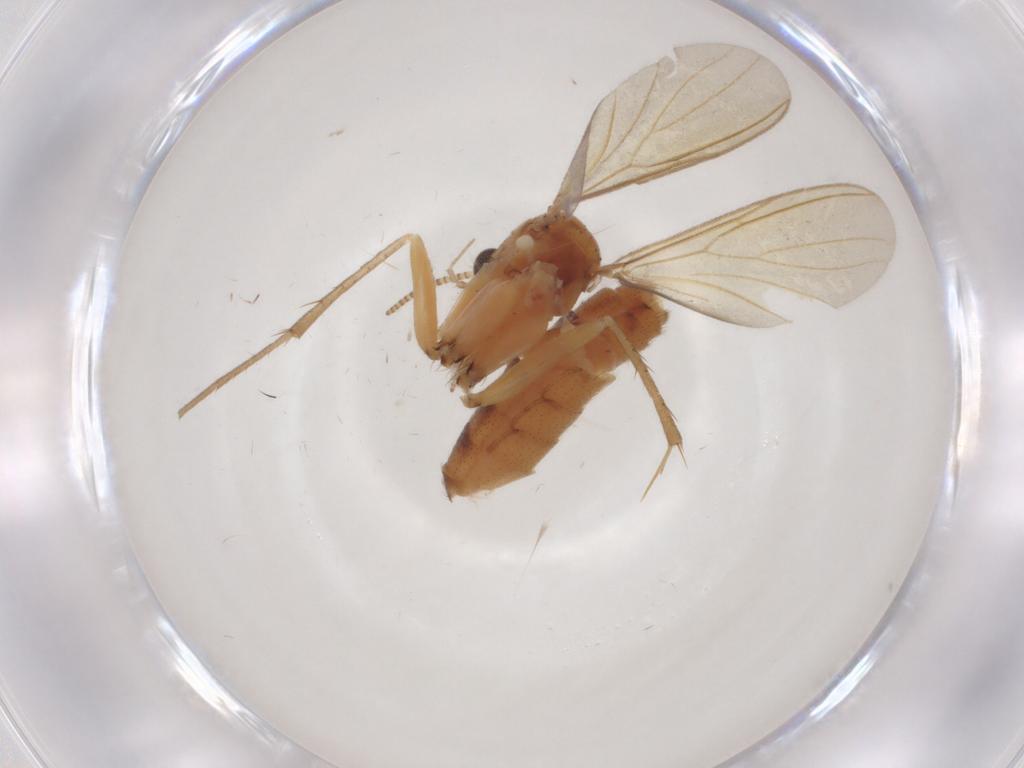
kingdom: Animalia
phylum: Arthropoda
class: Insecta
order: Diptera
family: Mycetophilidae
